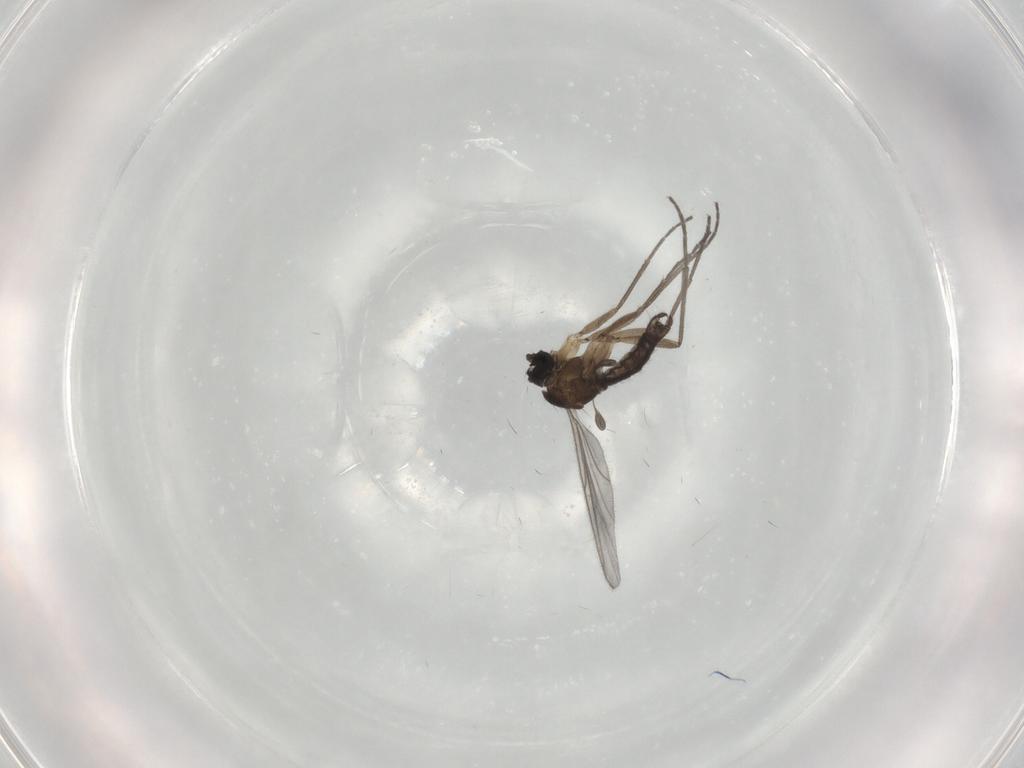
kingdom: Animalia
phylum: Arthropoda
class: Insecta
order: Diptera
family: Sciaridae
